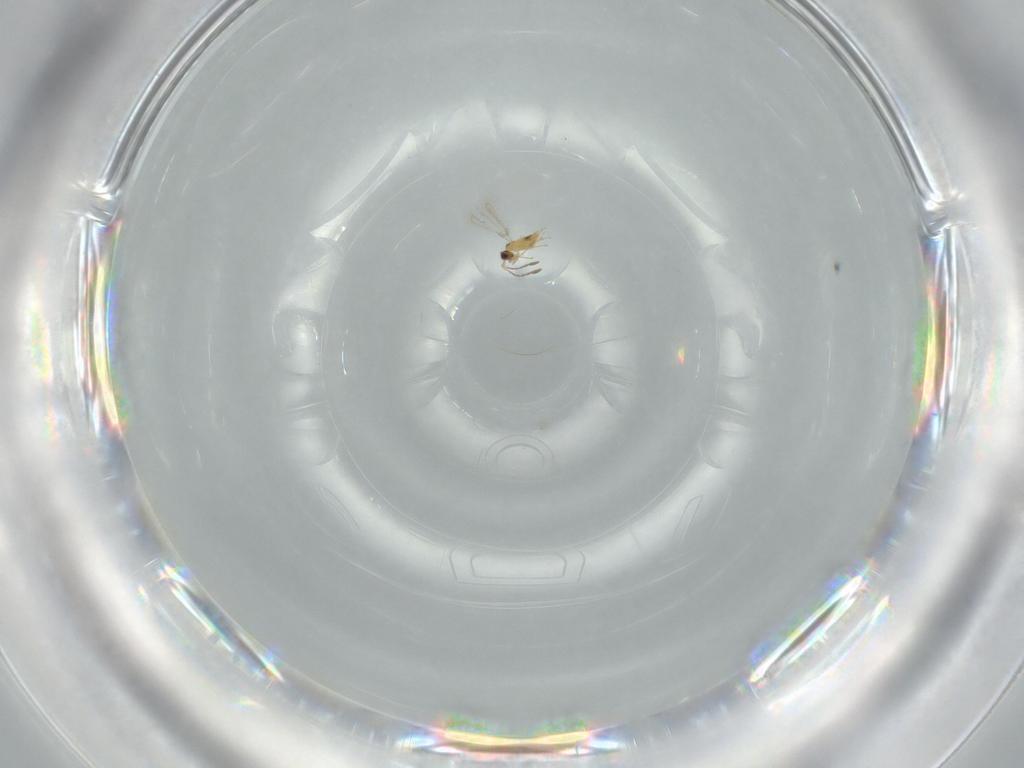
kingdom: Animalia
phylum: Arthropoda
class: Insecta
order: Hymenoptera
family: Mymaridae
